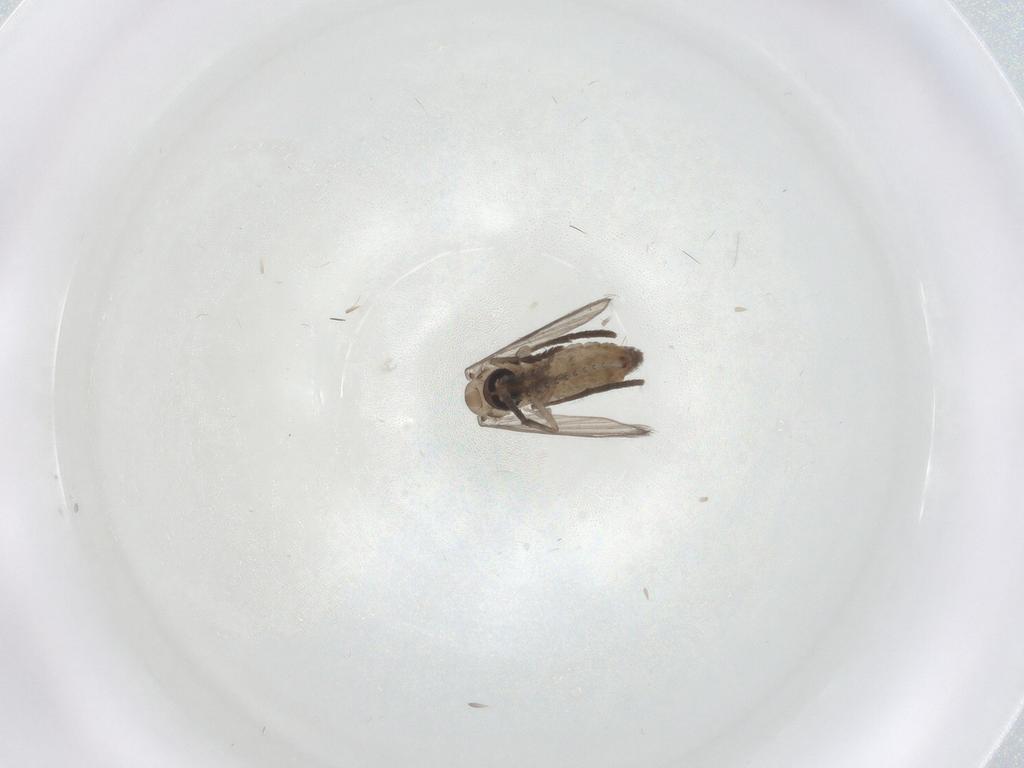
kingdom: Animalia
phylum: Arthropoda
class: Insecta
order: Diptera
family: Psychodidae
